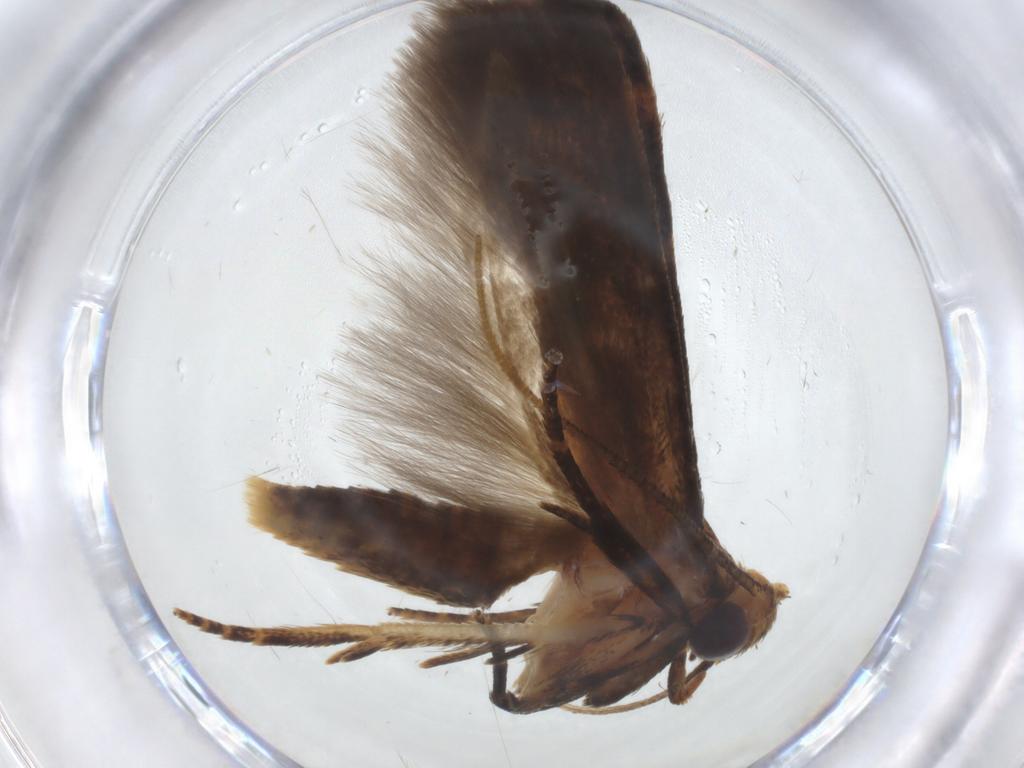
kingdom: Animalia
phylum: Arthropoda
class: Insecta
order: Lepidoptera
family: Blastobasidae
